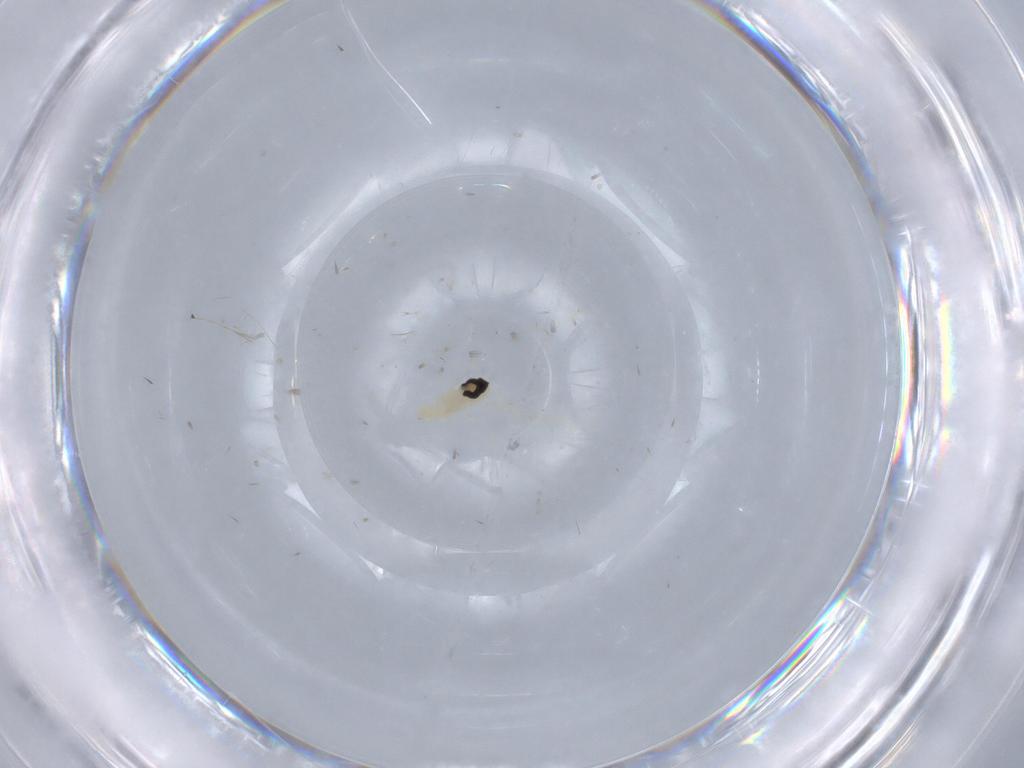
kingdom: Animalia
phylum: Arthropoda
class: Insecta
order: Diptera
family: Cecidomyiidae
